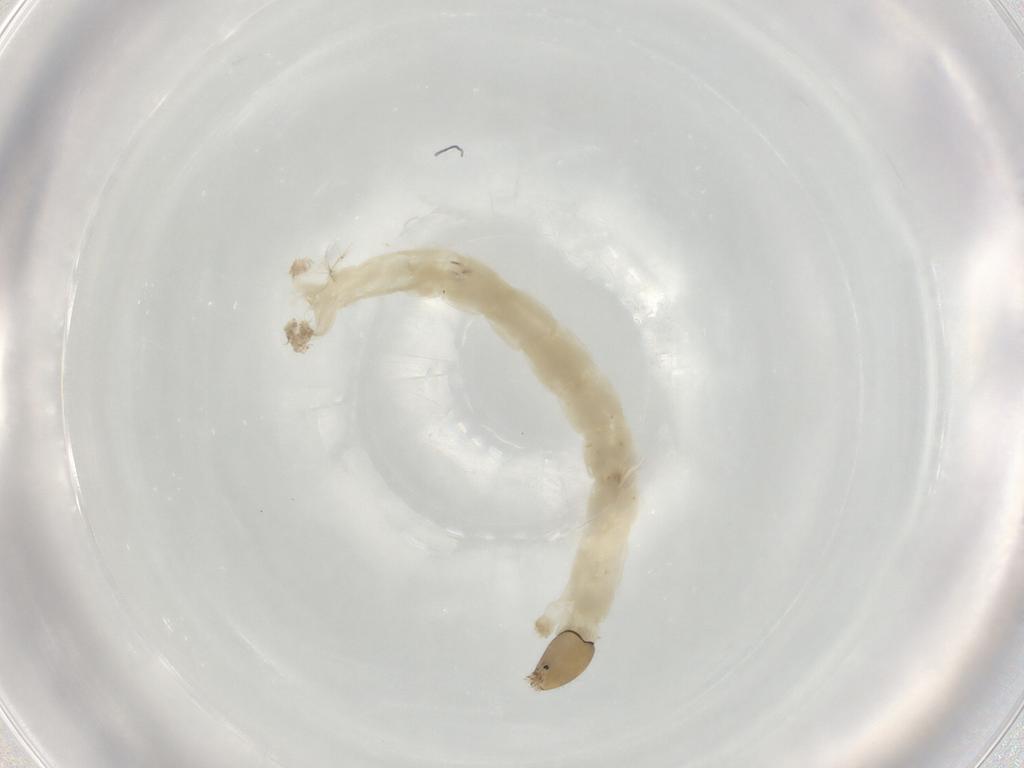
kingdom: Animalia
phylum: Arthropoda
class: Insecta
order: Diptera
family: Chironomidae
